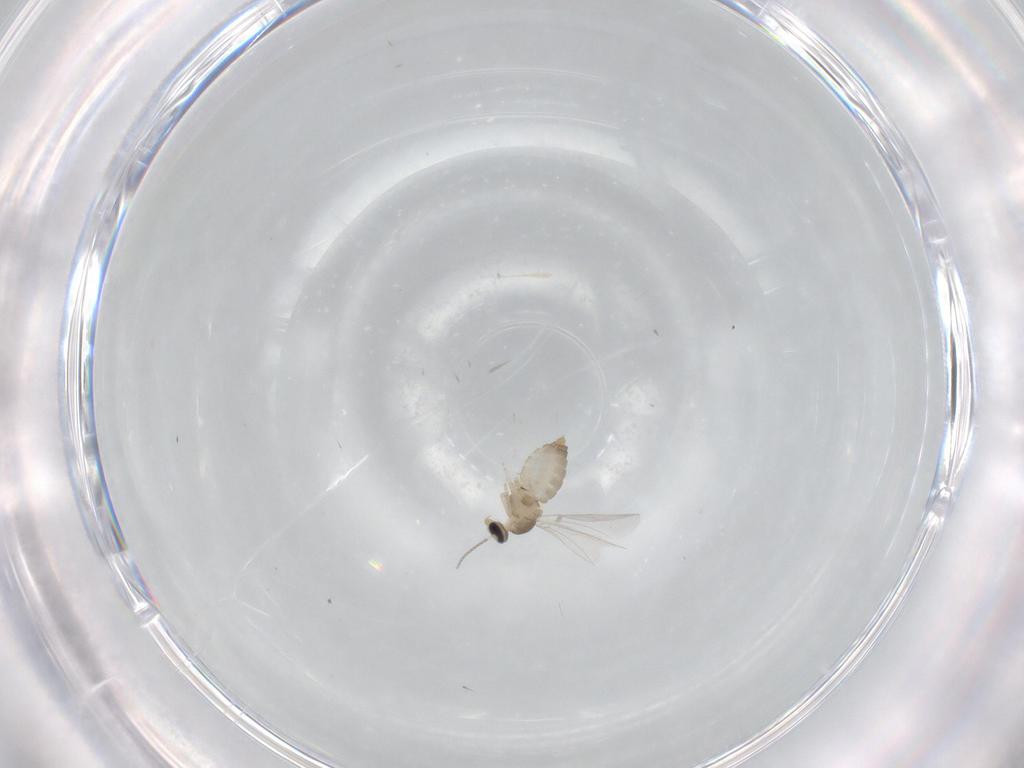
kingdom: Animalia
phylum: Arthropoda
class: Insecta
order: Diptera
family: Cecidomyiidae
